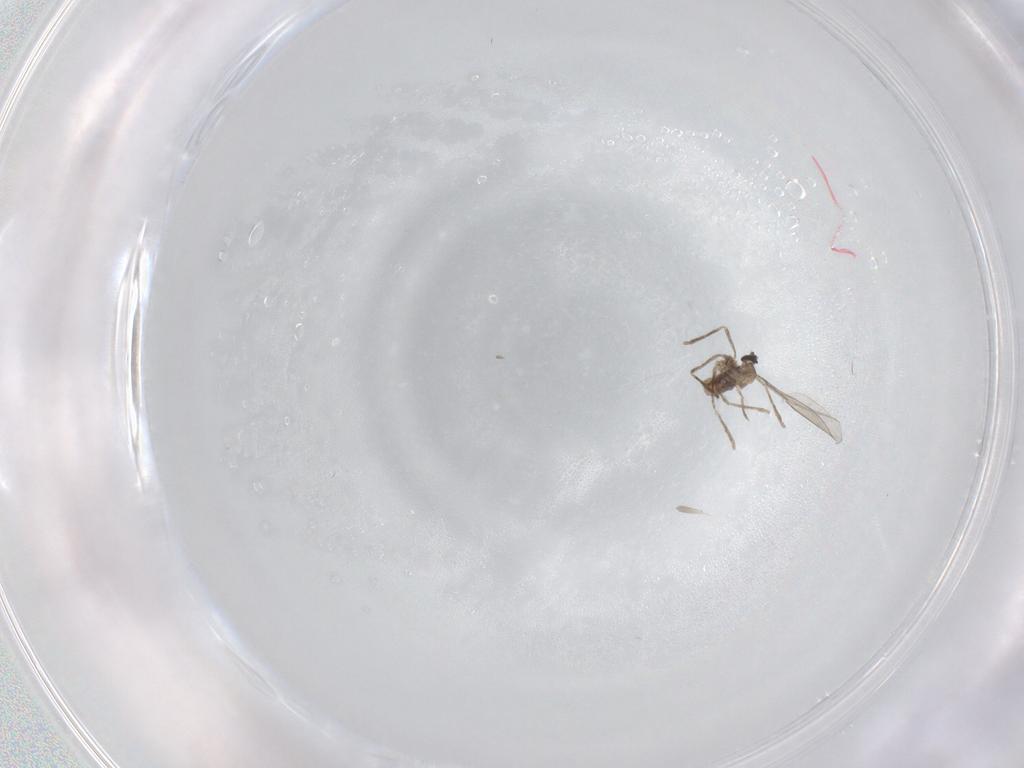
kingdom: Animalia
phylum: Arthropoda
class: Insecta
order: Diptera
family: Cecidomyiidae
